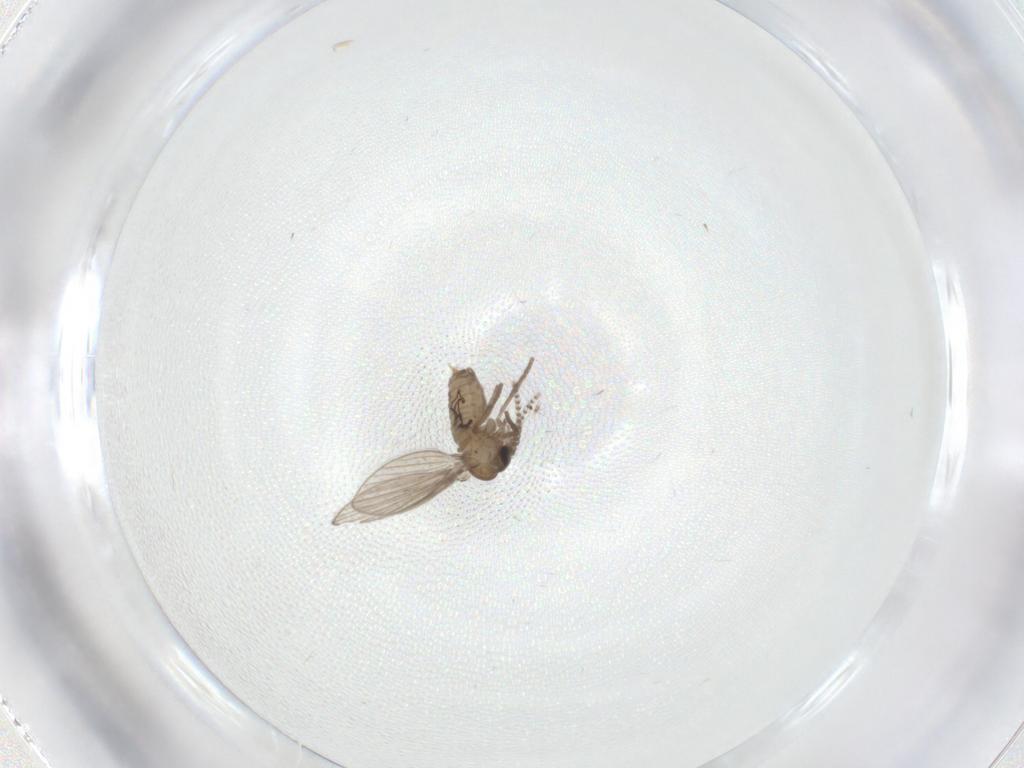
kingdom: Animalia
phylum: Arthropoda
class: Insecta
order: Diptera
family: Psychodidae
